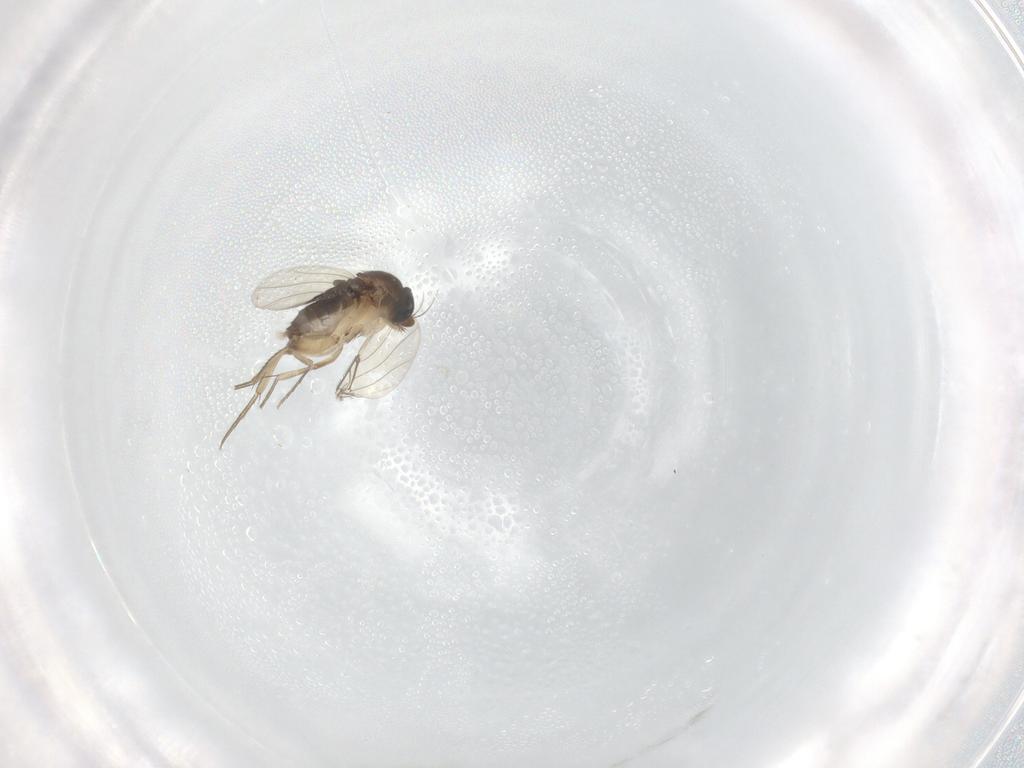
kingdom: Animalia
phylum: Arthropoda
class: Insecta
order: Diptera
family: Phoridae
